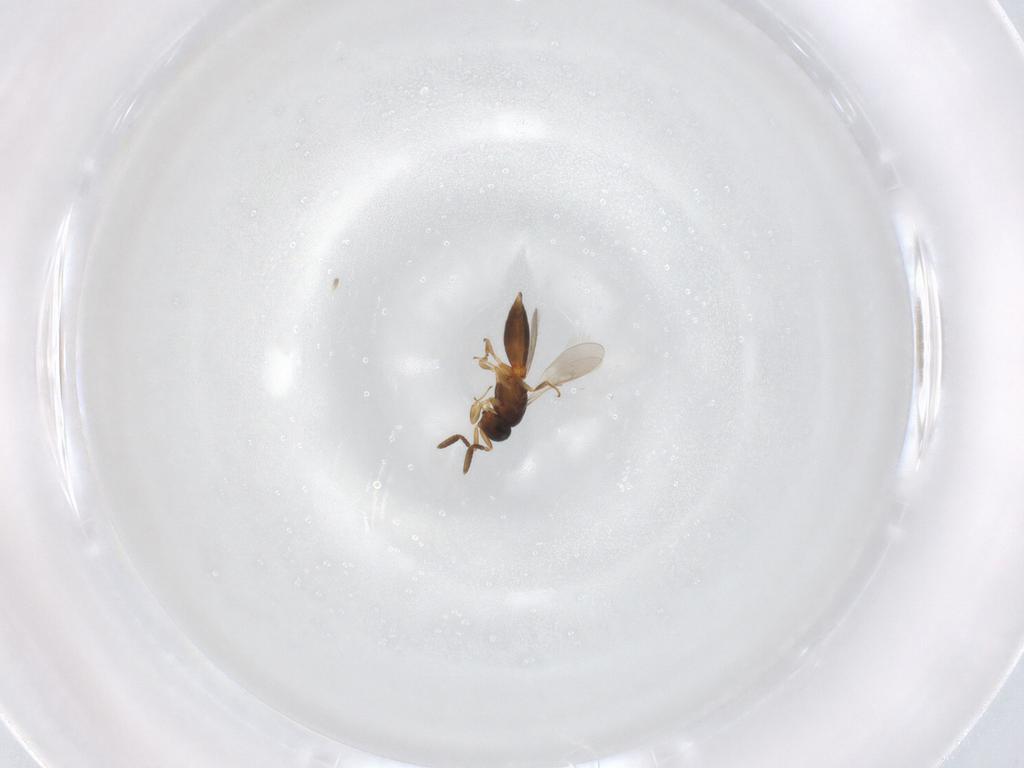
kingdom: Animalia
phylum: Arthropoda
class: Insecta
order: Hymenoptera
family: Scelionidae
